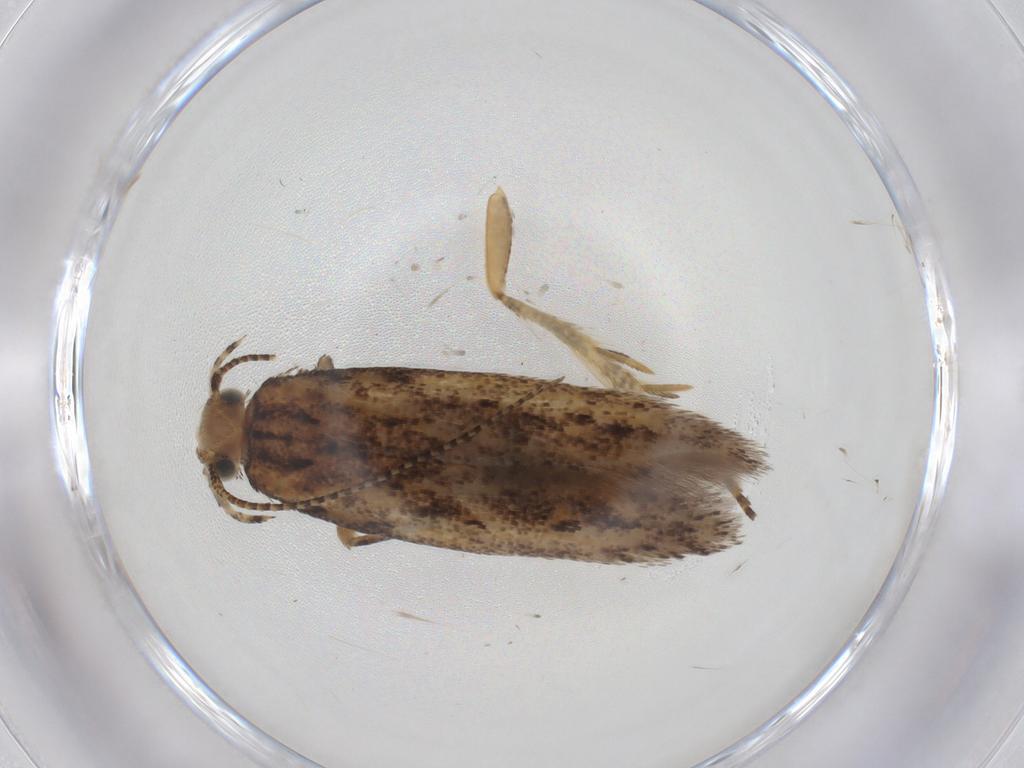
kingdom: Animalia
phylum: Arthropoda
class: Insecta
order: Lepidoptera
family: Gelechiidae
